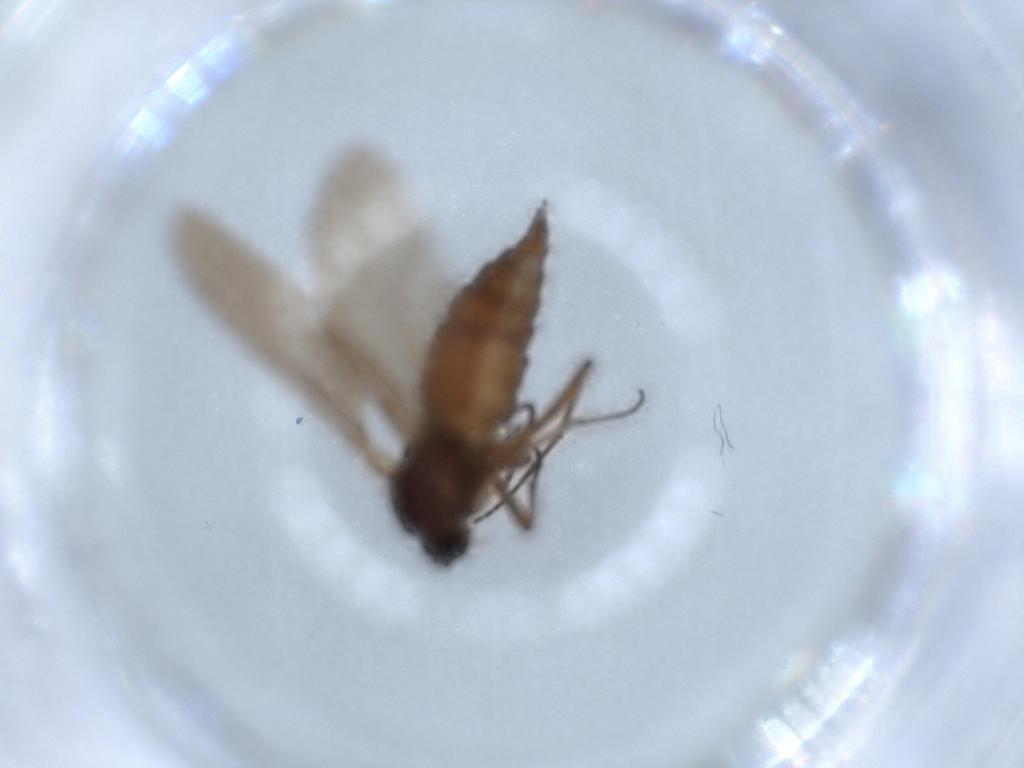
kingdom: Animalia
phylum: Arthropoda
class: Insecta
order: Diptera
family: Sciaridae
